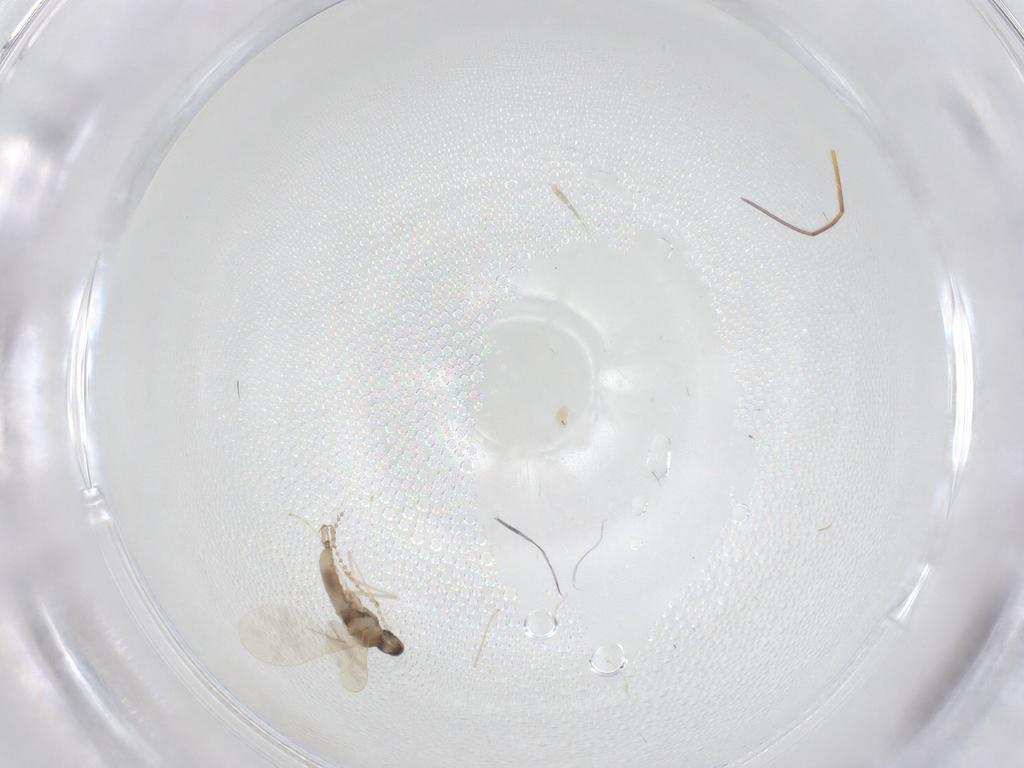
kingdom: Animalia
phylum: Arthropoda
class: Insecta
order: Diptera
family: Cecidomyiidae
